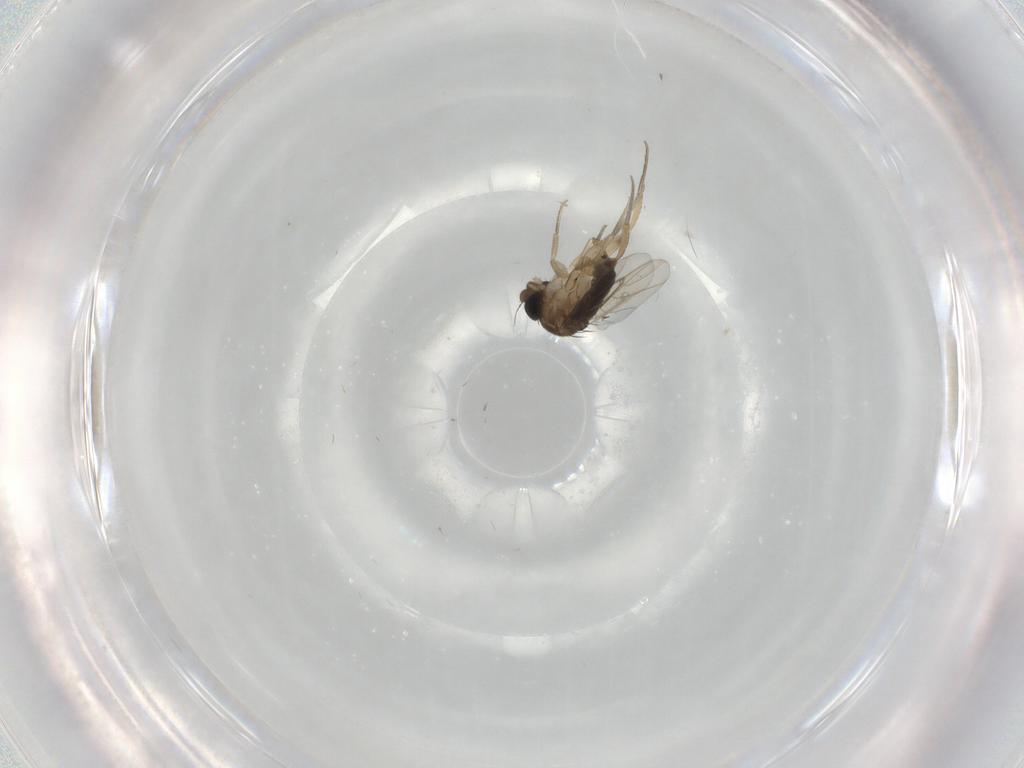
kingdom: Animalia
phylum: Arthropoda
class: Insecta
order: Diptera
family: Phoridae
